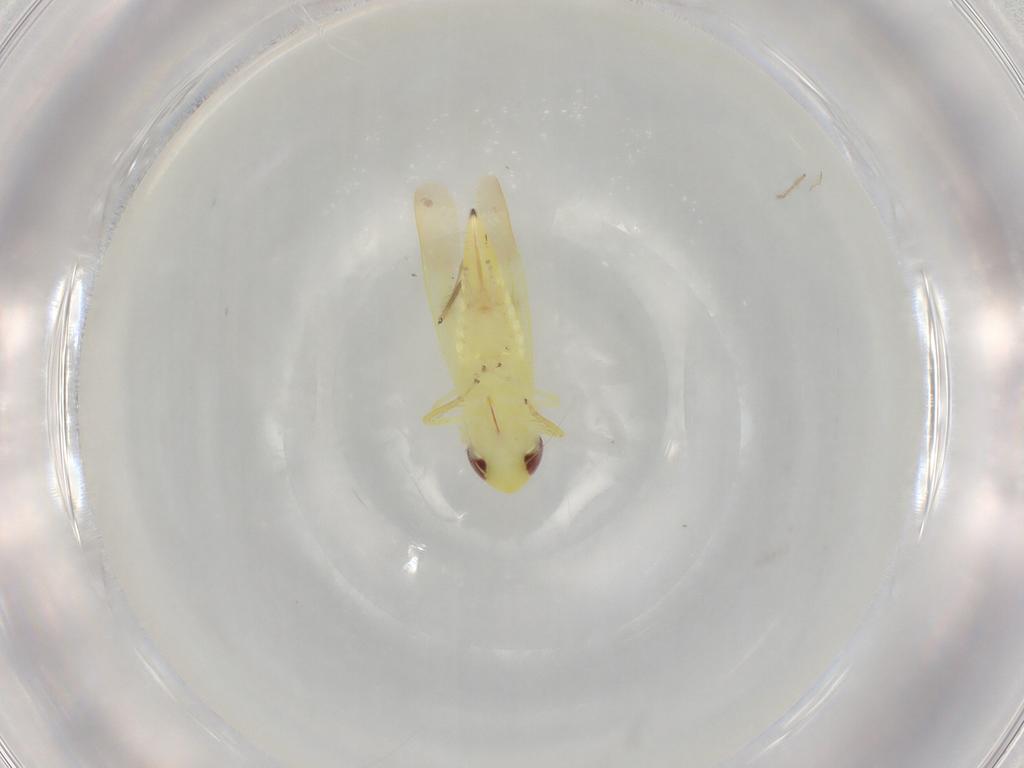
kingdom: Animalia
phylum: Arthropoda
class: Insecta
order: Hemiptera
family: Cicadellidae
